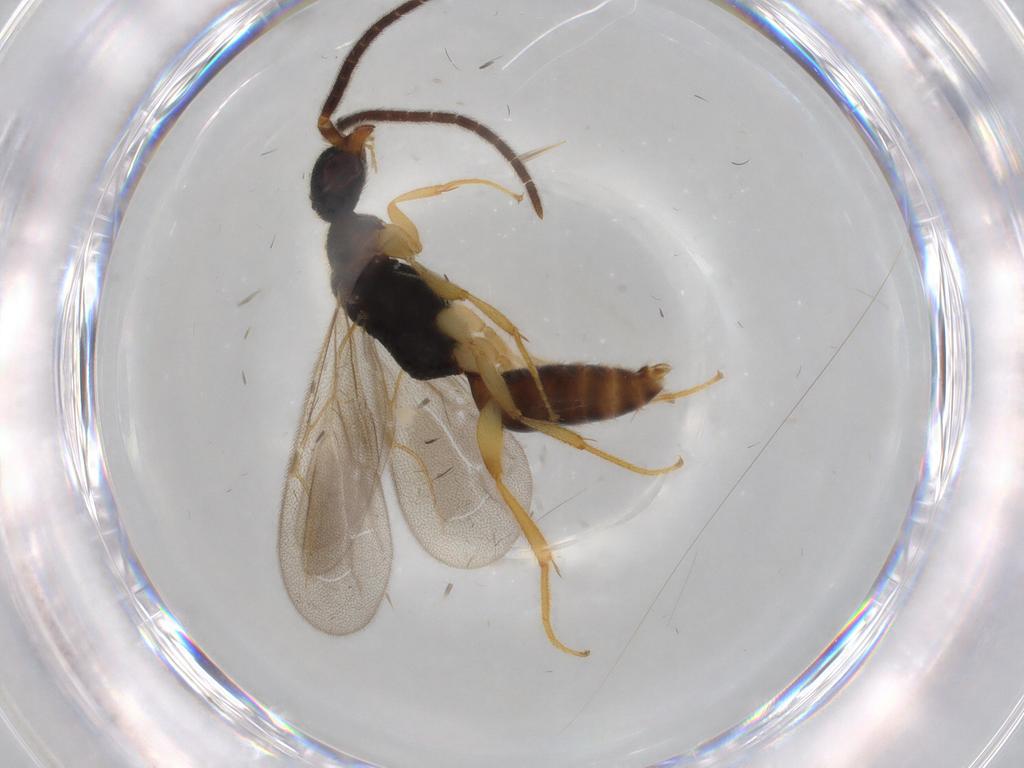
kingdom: Animalia
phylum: Arthropoda
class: Insecta
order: Hymenoptera
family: Bethylidae
